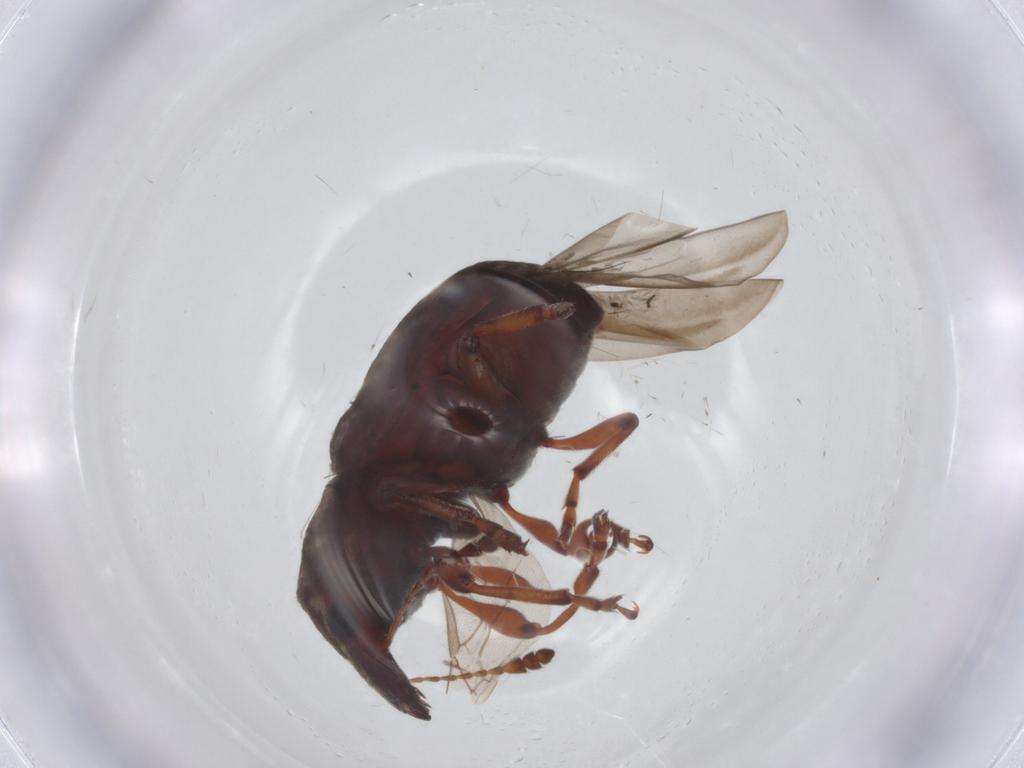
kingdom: Animalia
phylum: Arthropoda
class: Insecta
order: Coleoptera
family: Anthribidae
